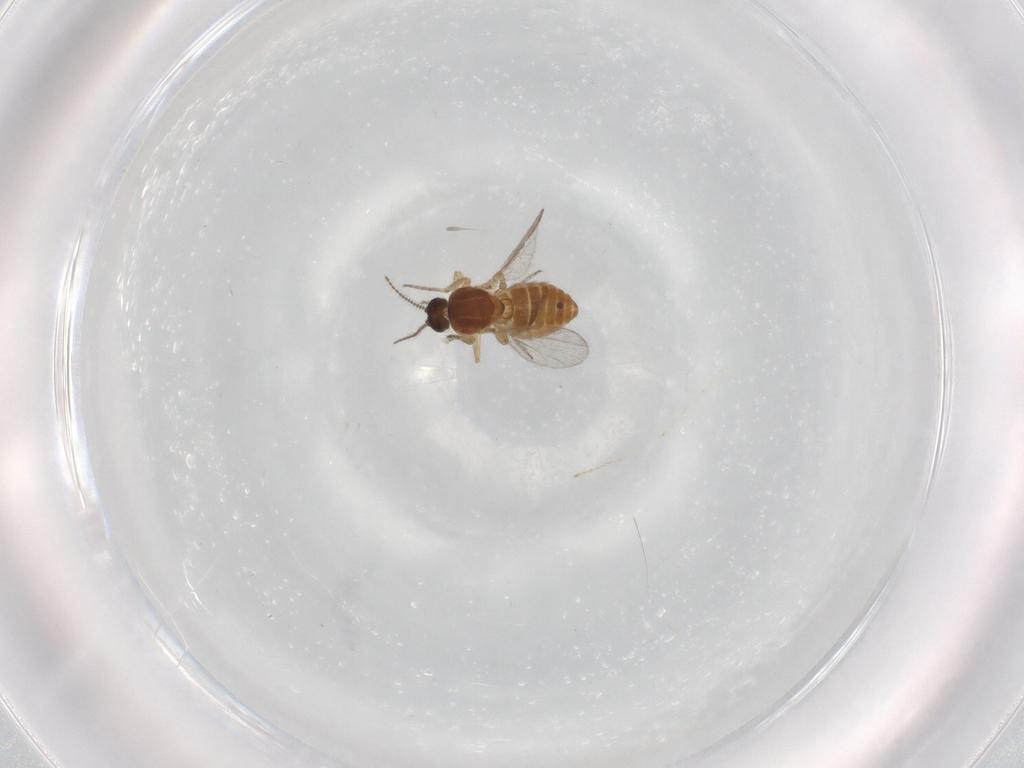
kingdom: Animalia
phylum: Arthropoda
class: Insecta
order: Diptera
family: Ceratopogonidae
